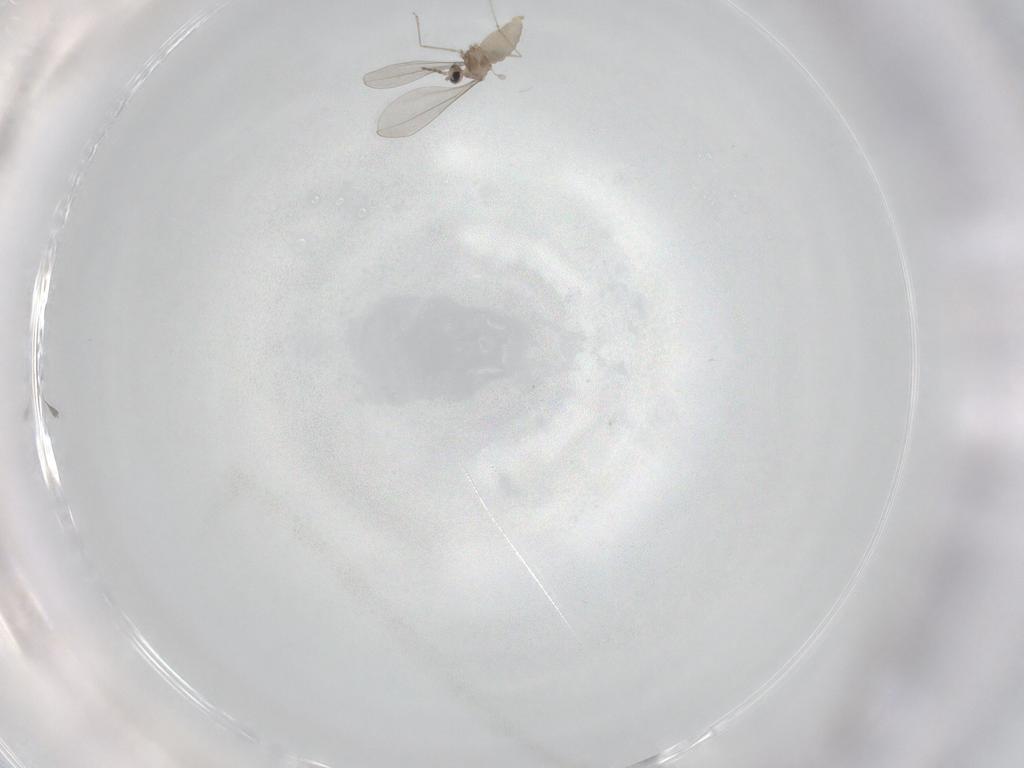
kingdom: Animalia
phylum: Arthropoda
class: Insecta
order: Diptera
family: Cecidomyiidae
